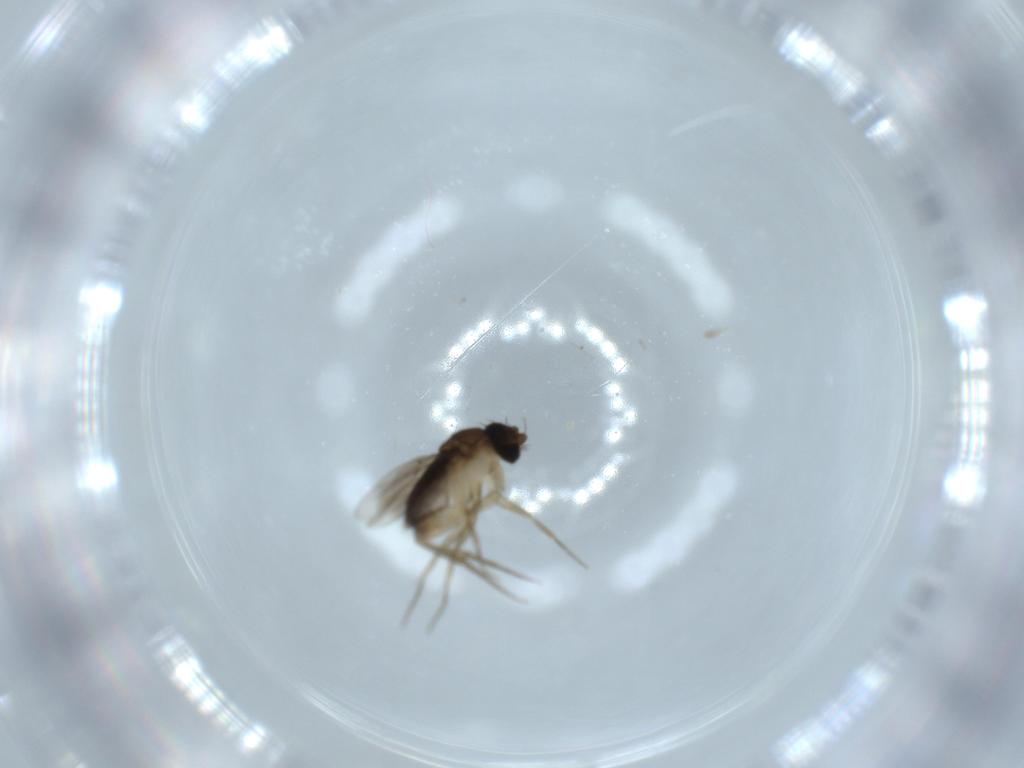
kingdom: Animalia
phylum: Arthropoda
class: Insecta
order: Diptera
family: Phoridae
